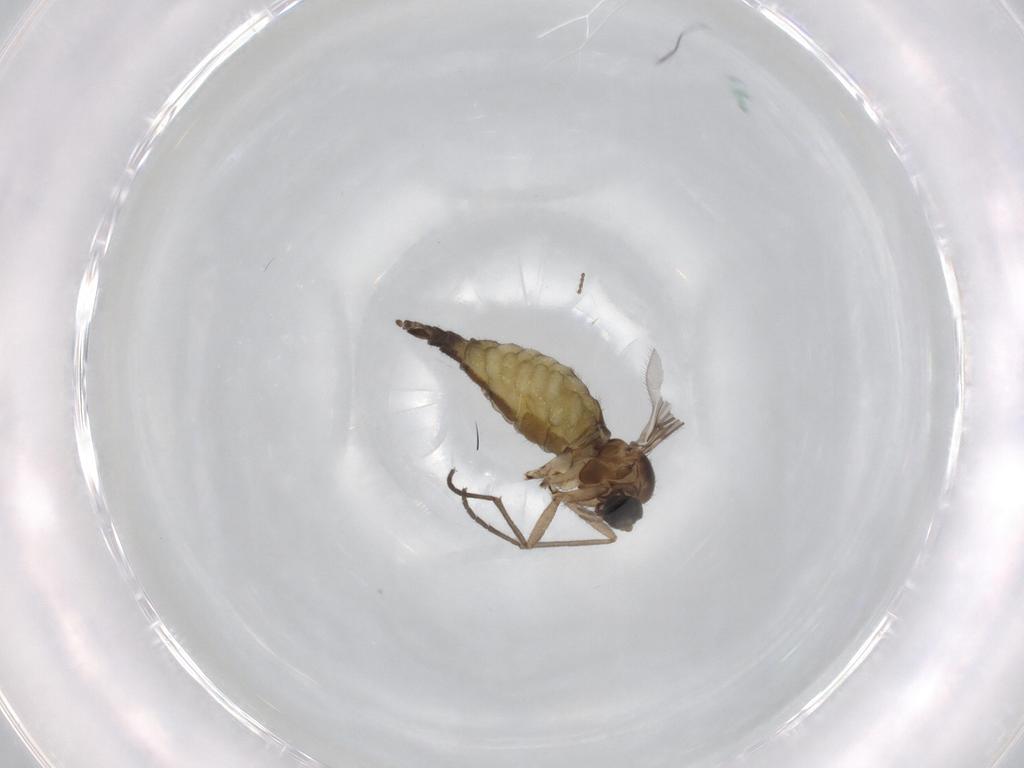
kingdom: Animalia
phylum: Arthropoda
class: Insecta
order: Diptera
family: Sciaridae
